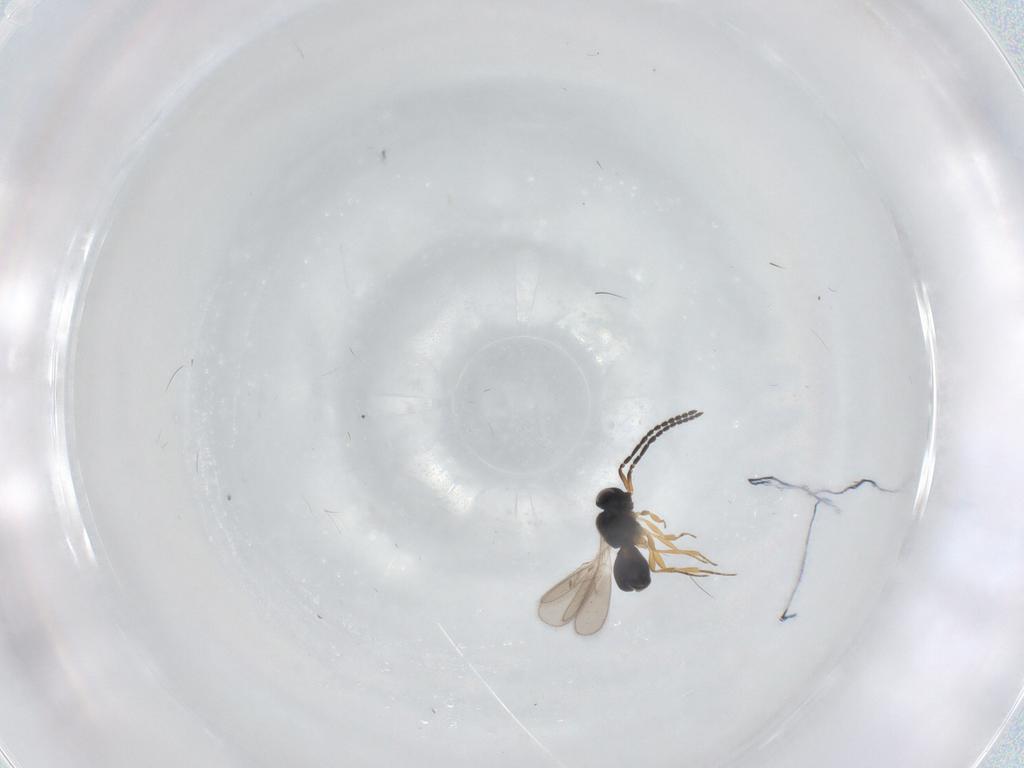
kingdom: Animalia
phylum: Arthropoda
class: Insecta
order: Hymenoptera
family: Scelionidae
